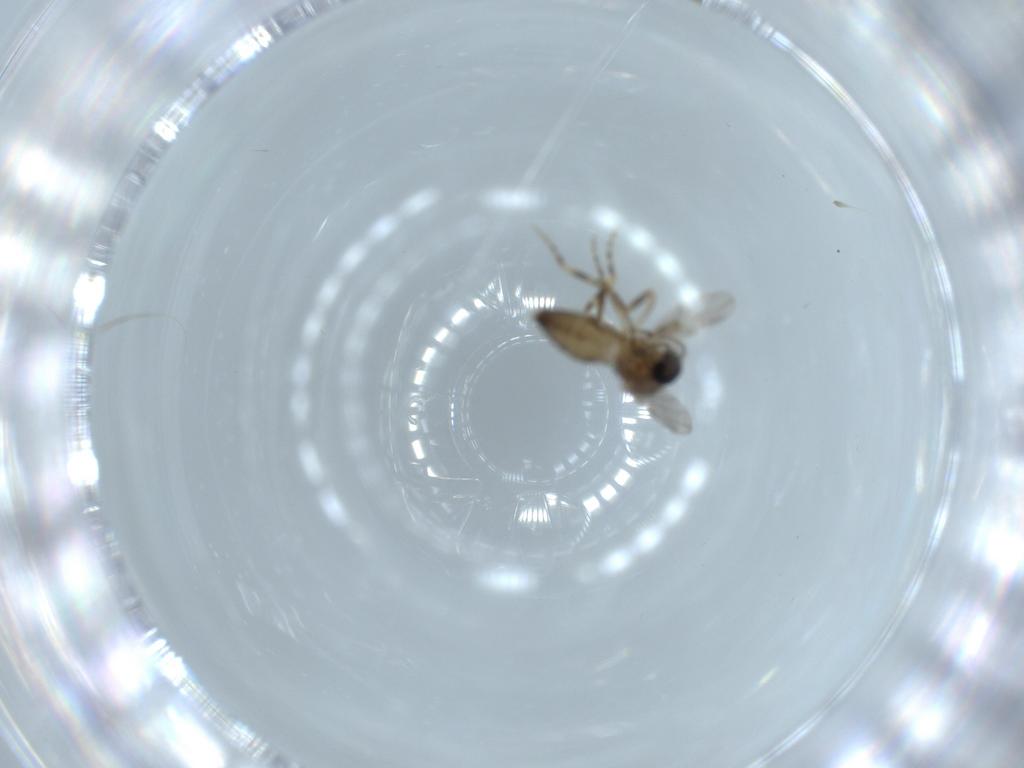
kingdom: Animalia
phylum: Arthropoda
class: Insecta
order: Diptera
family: Ceratopogonidae
